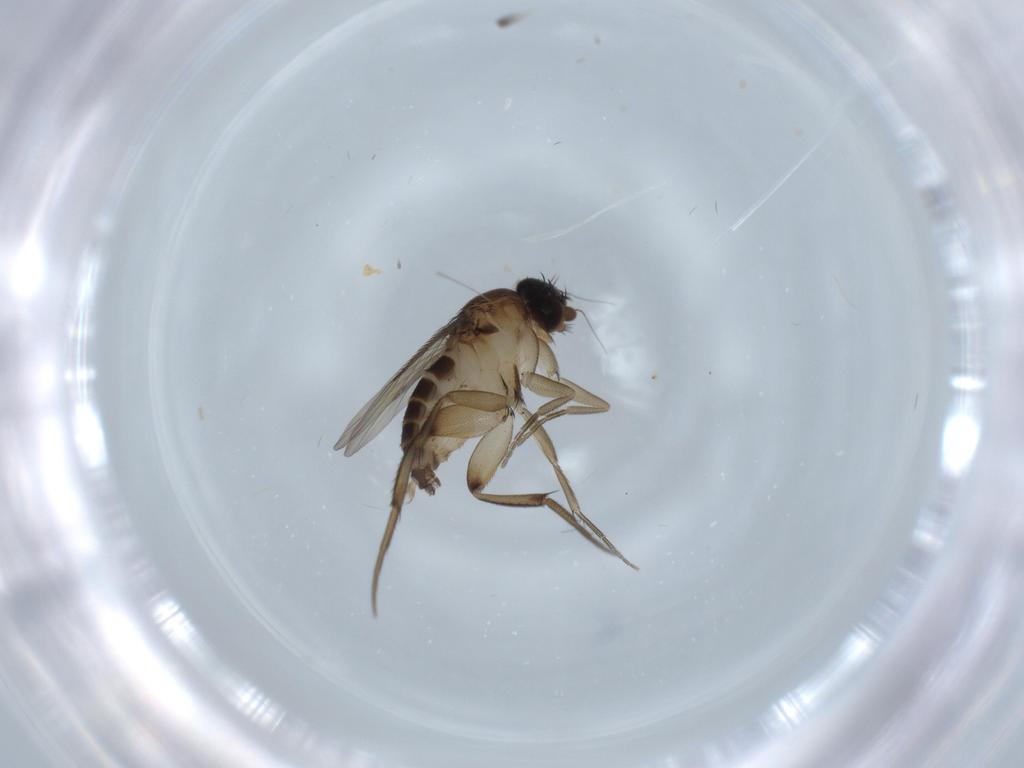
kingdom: Animalia
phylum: Arthropoda
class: Insecta
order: Diptera
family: Phoridae
